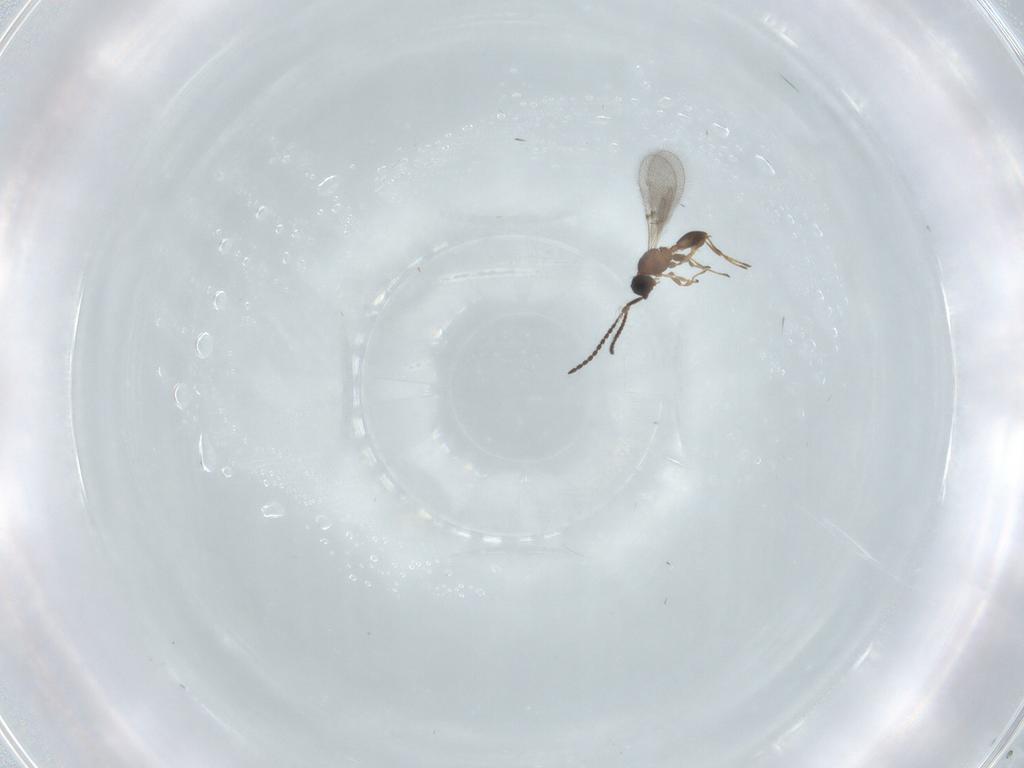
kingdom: Animalia
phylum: Arthropoda
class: Insecta
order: Hymenoptera
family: Diapriidae
